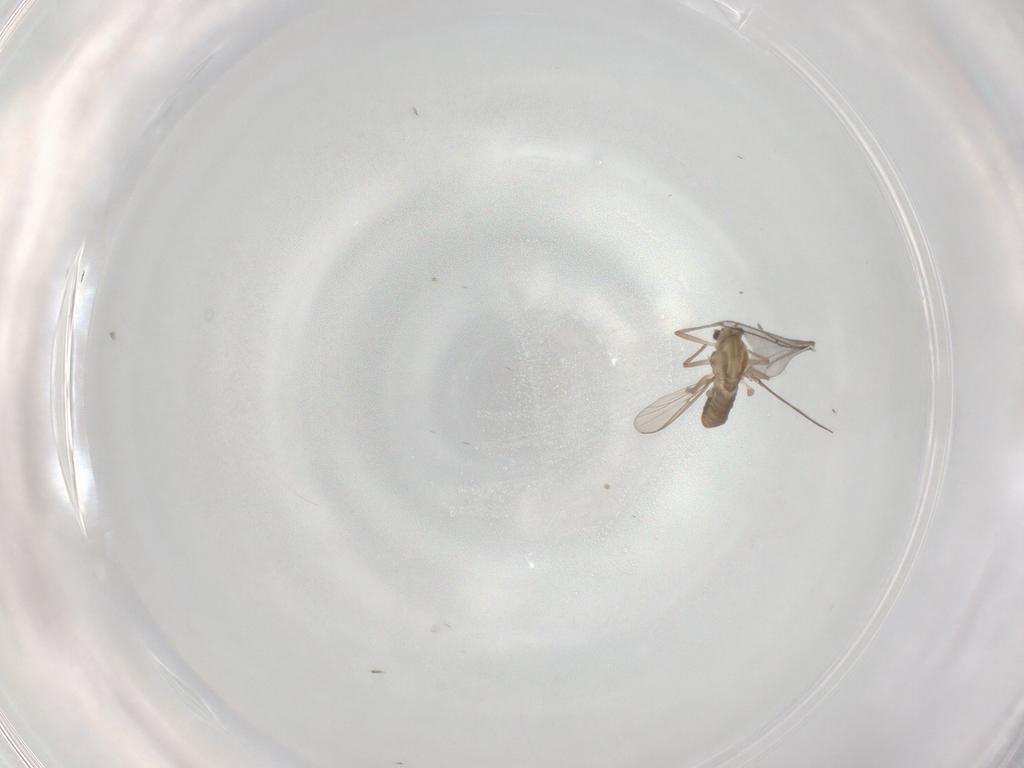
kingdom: Animalia
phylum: Arthropoda
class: Insecta
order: Diptera
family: Chironomidae
